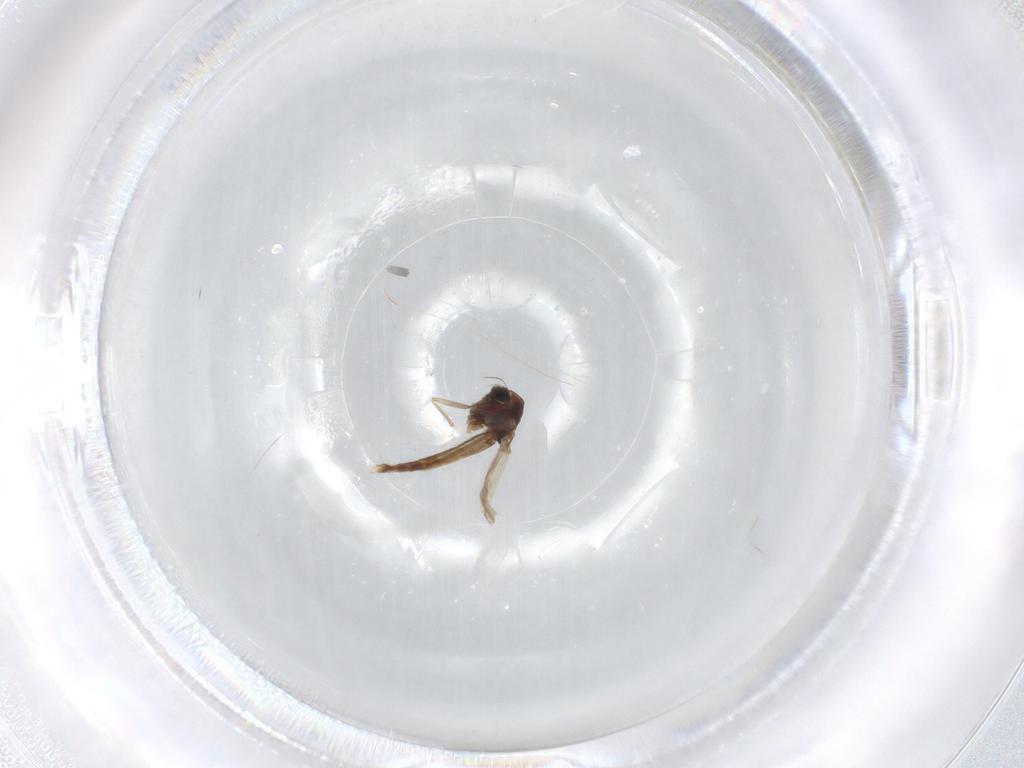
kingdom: Animalia
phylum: Arthropoda
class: Insecta
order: Diptera
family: Chironomidae
